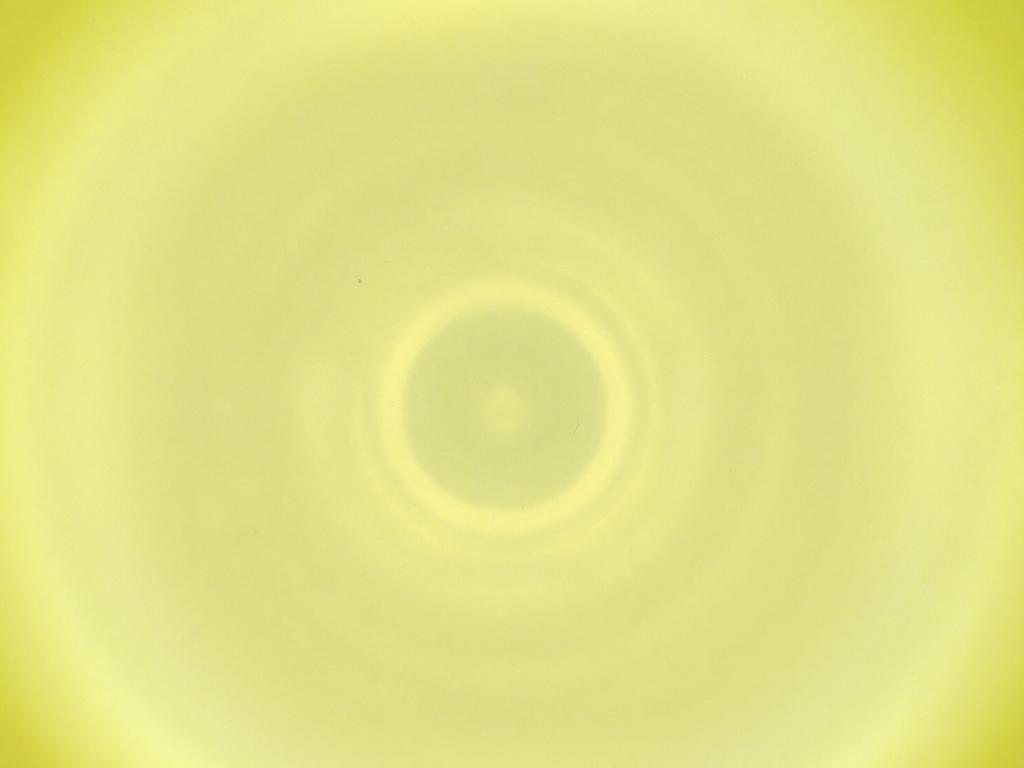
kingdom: Animalia
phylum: Arthropoda
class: Insecta
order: Diptera
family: Cecidomyiidae
